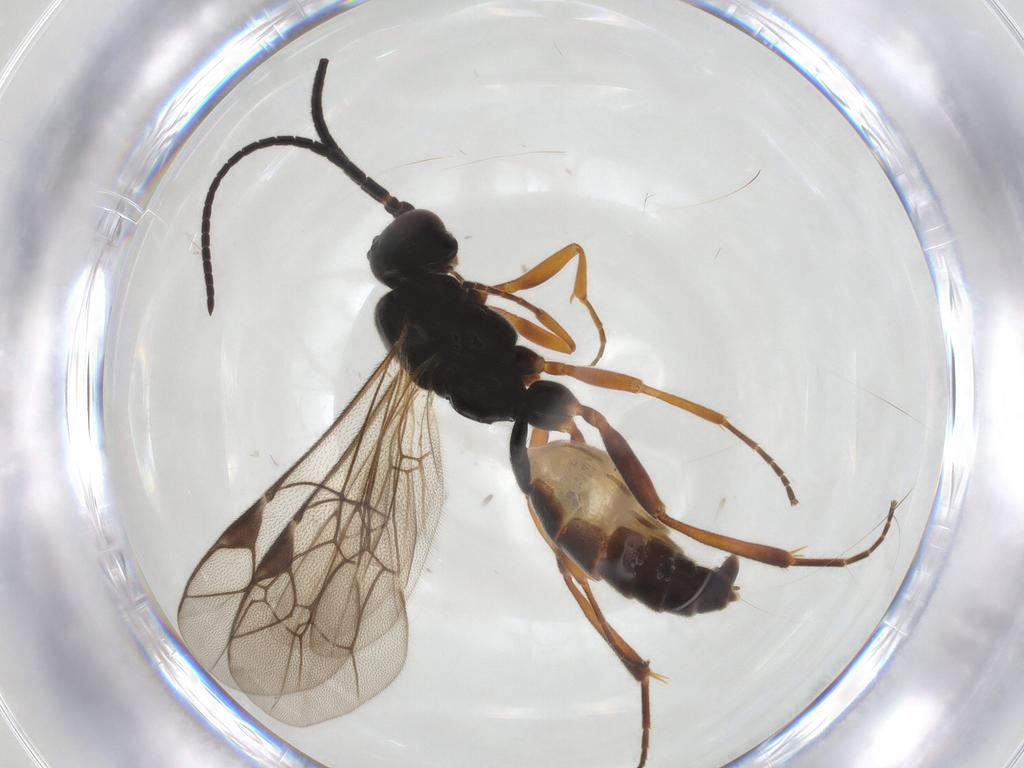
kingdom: Animalia
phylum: Arthropoda
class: Insecta
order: Hymenoptera
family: Ichneumonidae
